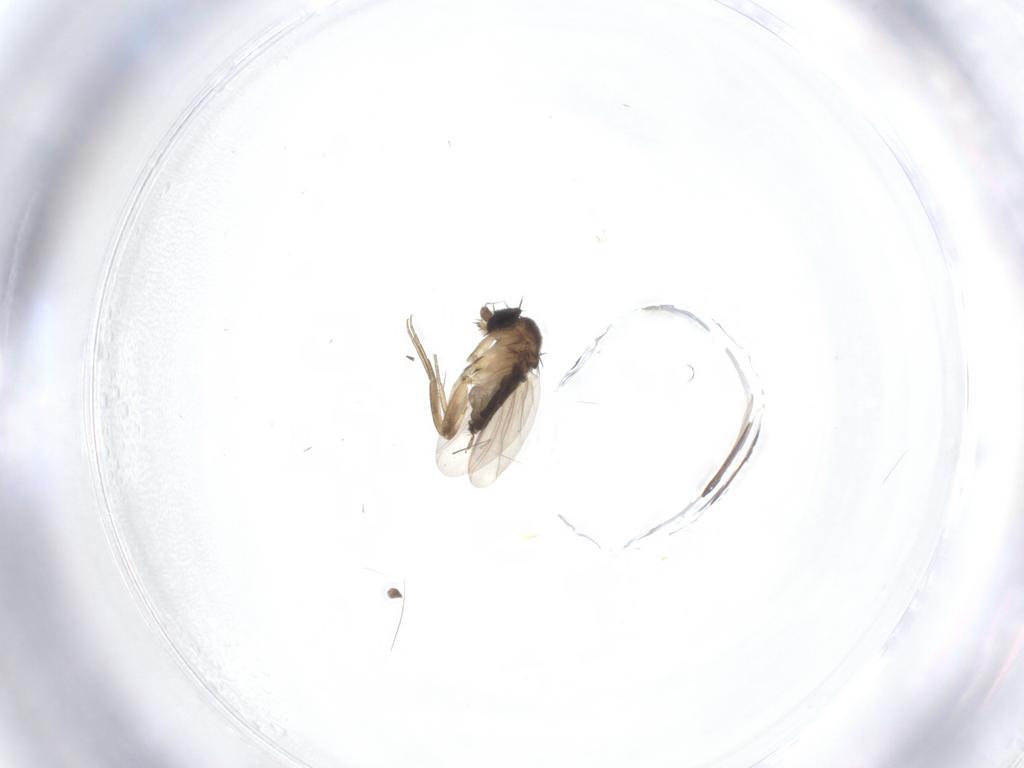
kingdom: Animalia
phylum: Arthropoda
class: Insecta
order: Diptera
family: Phoridae
